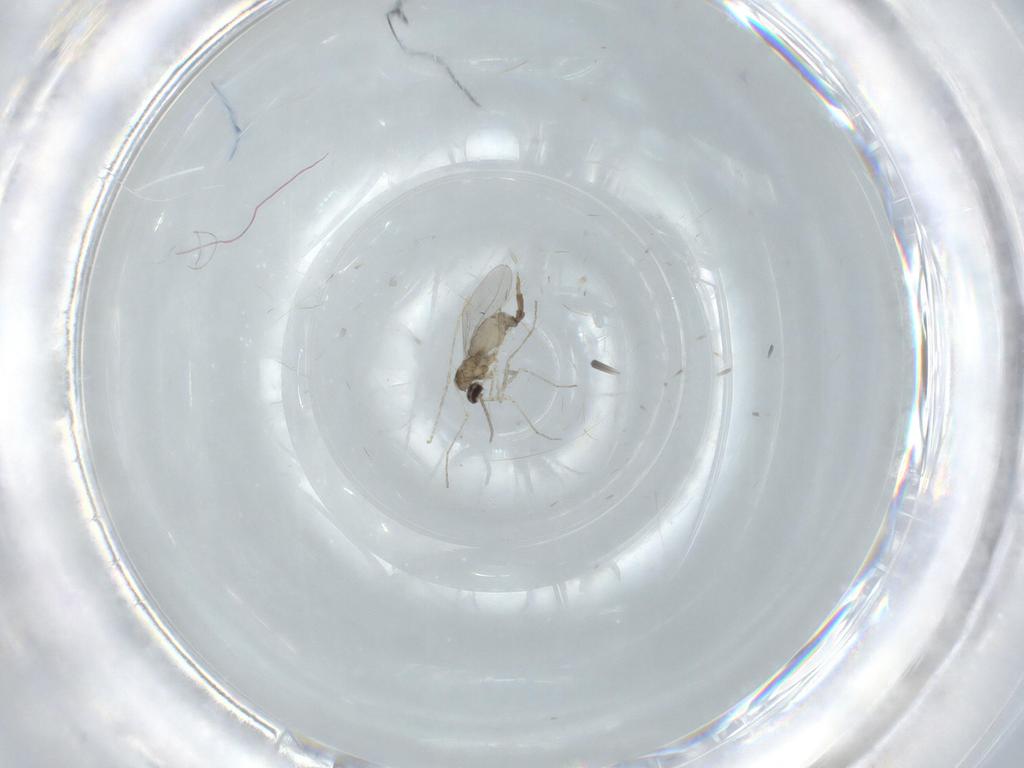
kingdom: Animalia
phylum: Arthropoda
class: Insecta
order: Diptera
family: Cecidomyiidae
